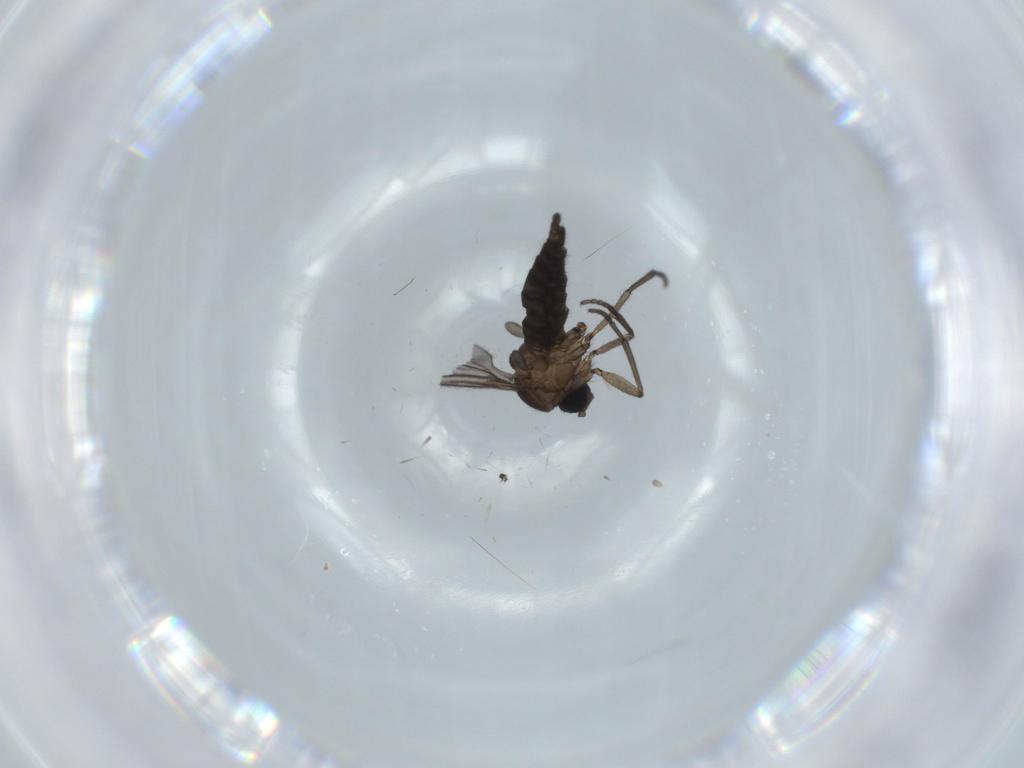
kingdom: Animalia
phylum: Arthropoda
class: Insecta
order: Diptera
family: Sciaridae
